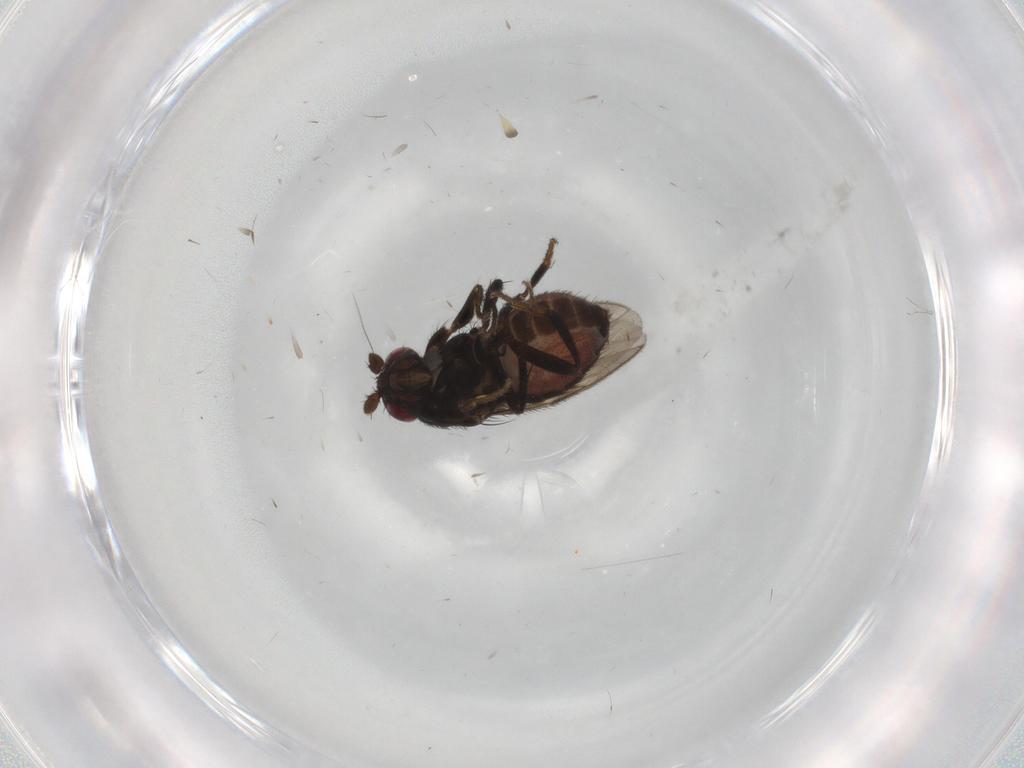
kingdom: Animalia
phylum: Arthropoda
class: Insecta
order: Diptera
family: Sphaeroceridae
